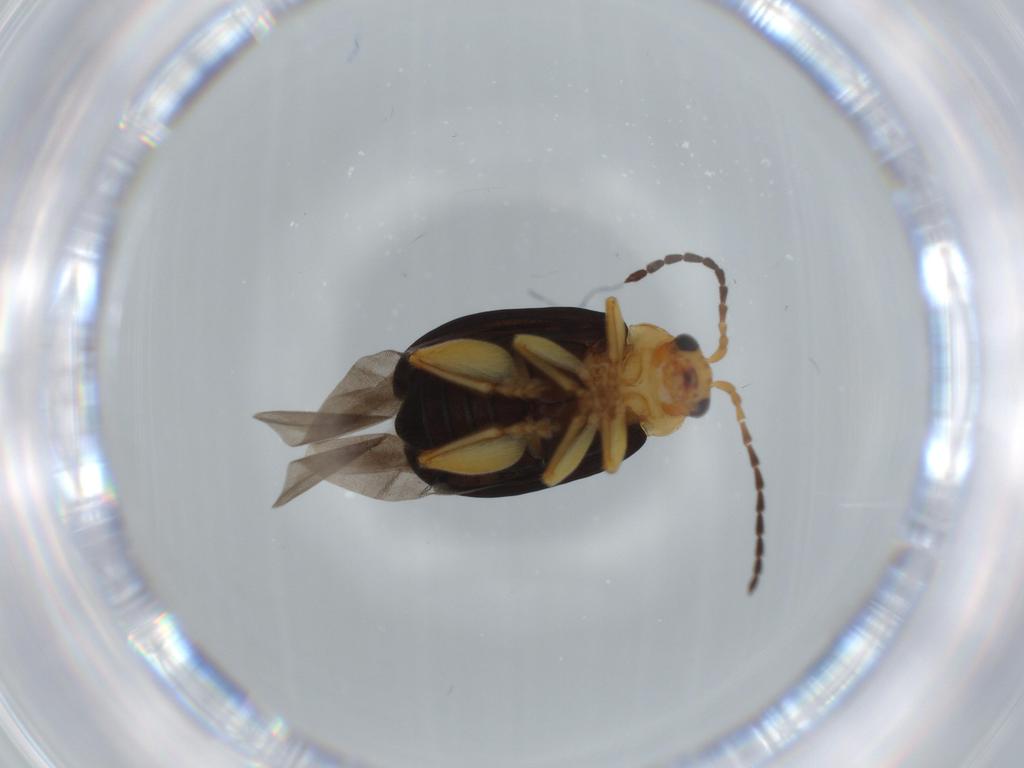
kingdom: Animalia
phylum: Arthropoda
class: Insecta
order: Coleoptera
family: Chrysomelidae
